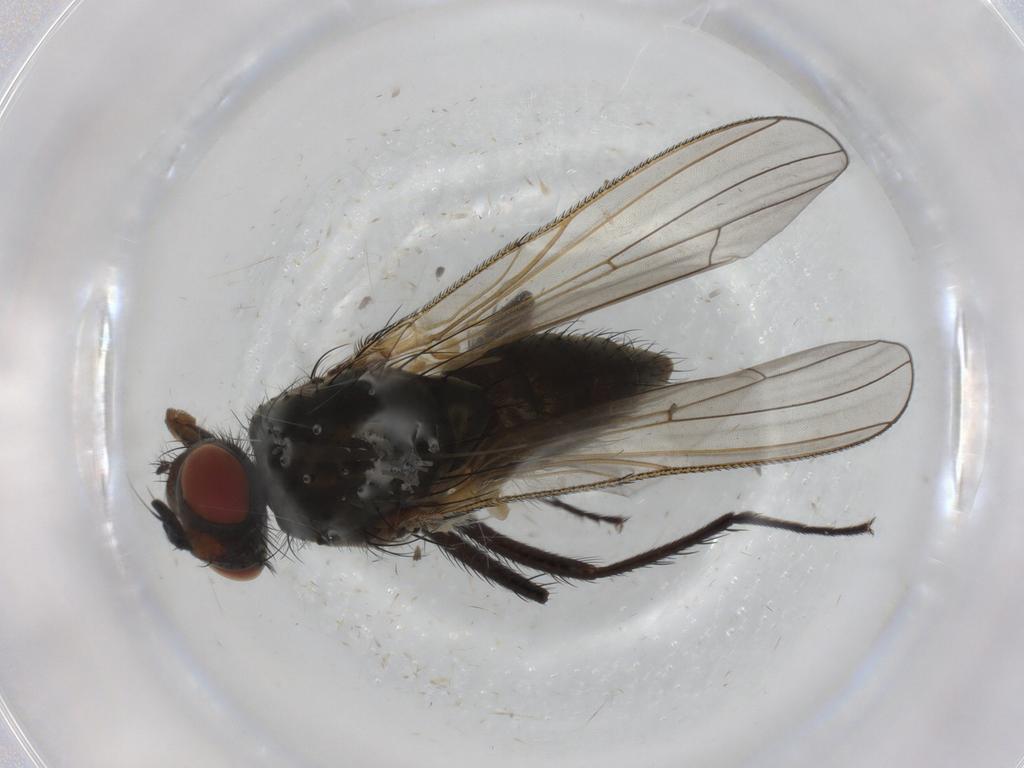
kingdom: Animalia
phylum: Arthropoda
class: Insecta
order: Diptera
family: Anthomyiidae
